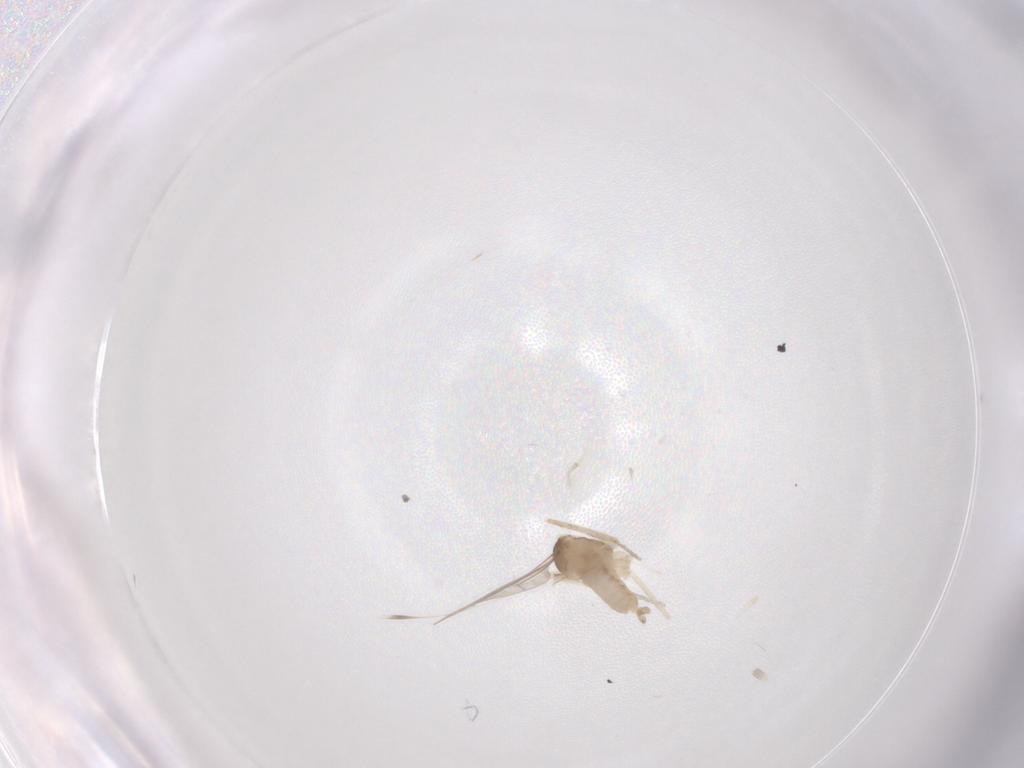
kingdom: Animalia
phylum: Arthropoda
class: Insecta
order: Diptera
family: Cecidomyiidae
